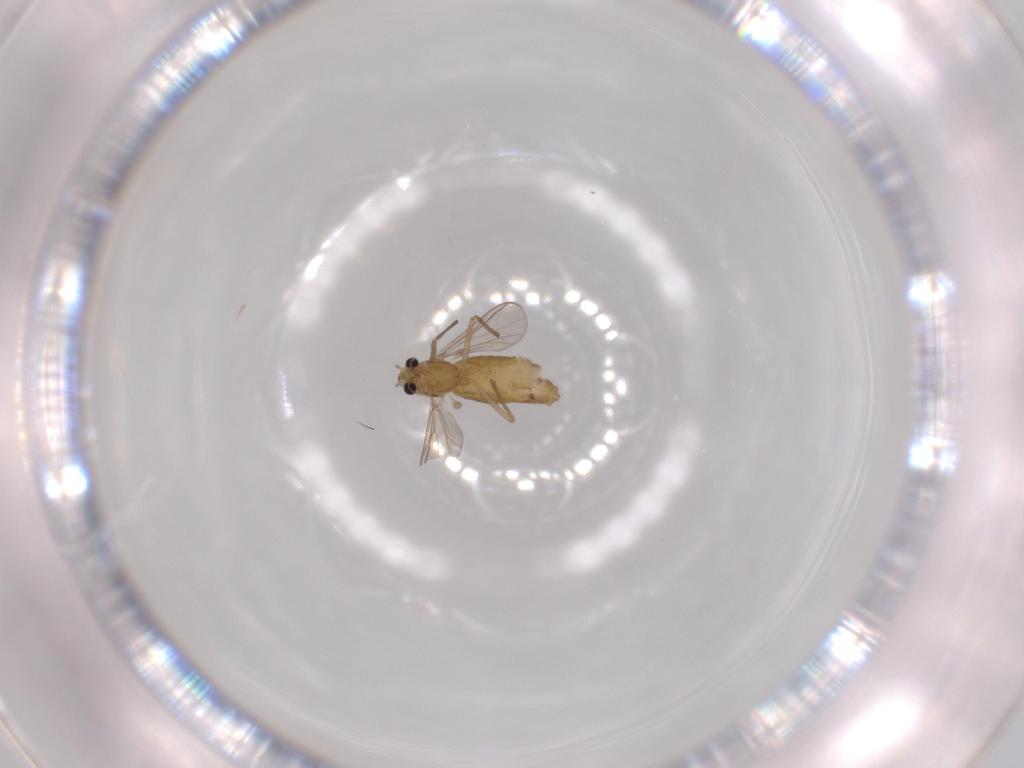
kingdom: Animalia
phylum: Arthropoda
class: Insecta
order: Diptera
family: Chironomidae
